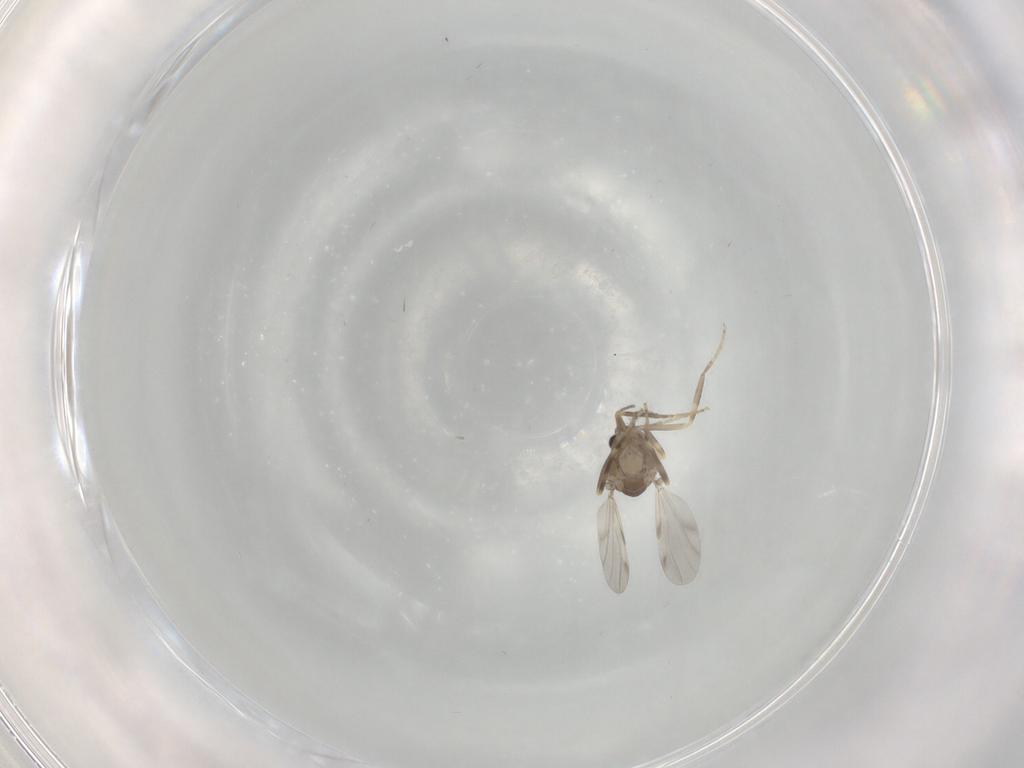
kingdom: Animalia
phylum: Arthropoda
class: Insecta
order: Diptera
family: Ceratopogonidae
